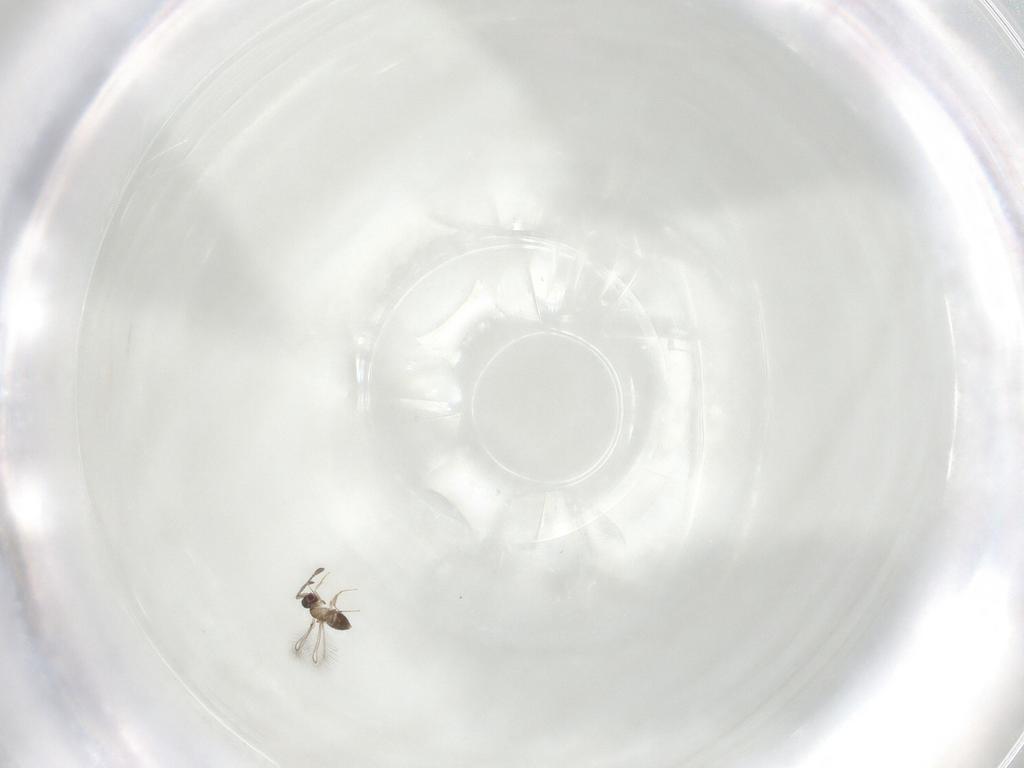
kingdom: Animalia
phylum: Arthropoda
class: Insecta
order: Hymenoptera
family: Mymaridae
